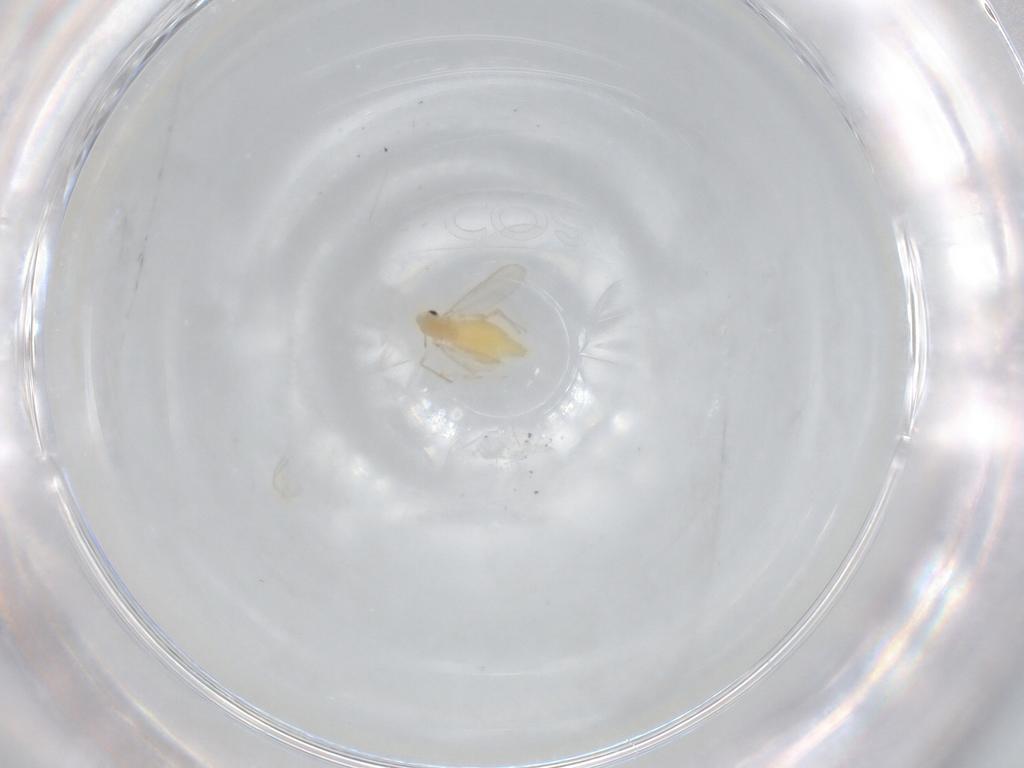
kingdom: Animalia
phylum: Arthropoda
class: Insecta
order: Diptera
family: Chironomidae
